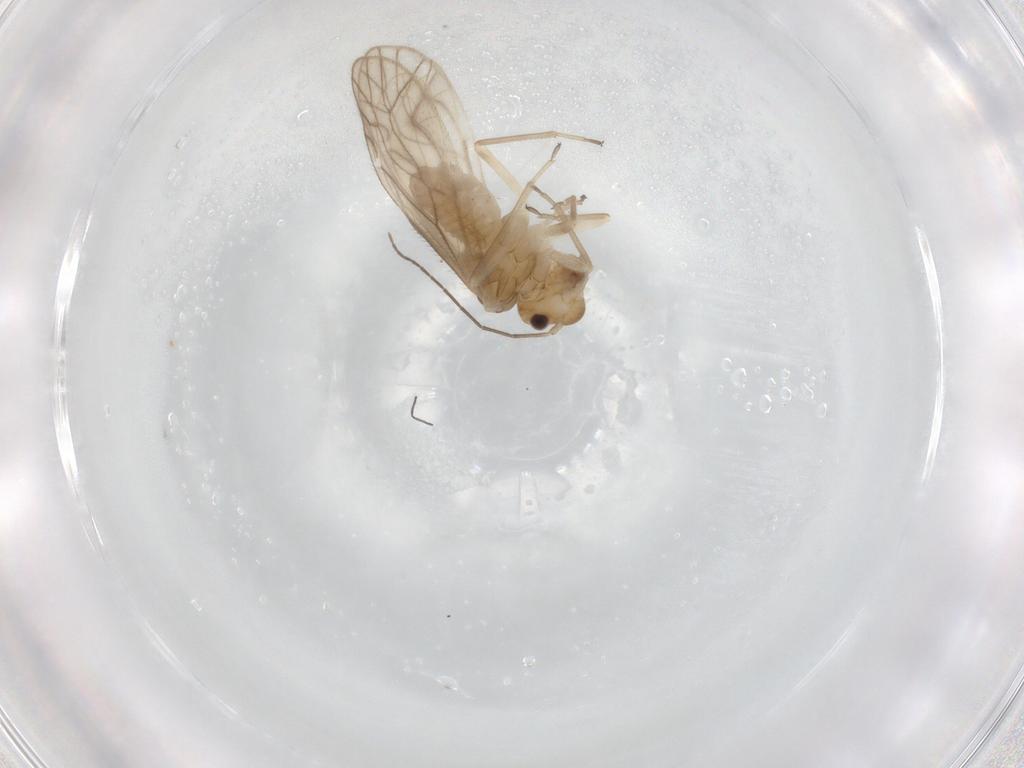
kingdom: Animalia
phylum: Arthropoda
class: Insecta
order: Psocodea
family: Philotarsidae
